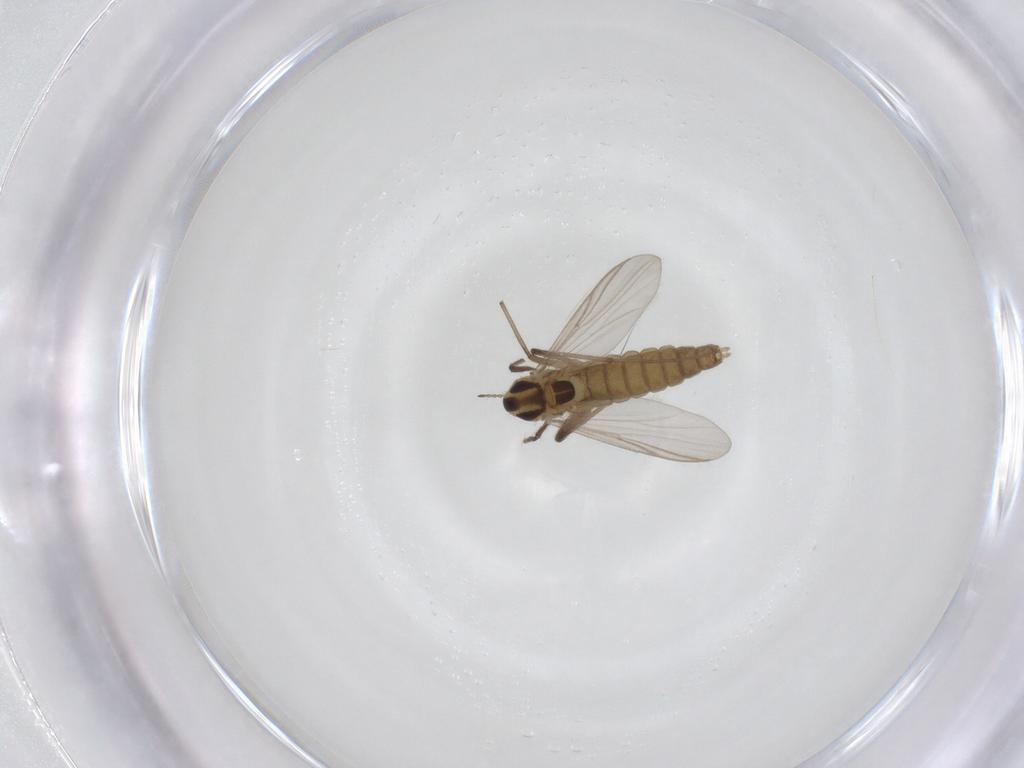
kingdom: Animalia
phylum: Arthropoda
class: Insecta
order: Diptera
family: Chironomidae
